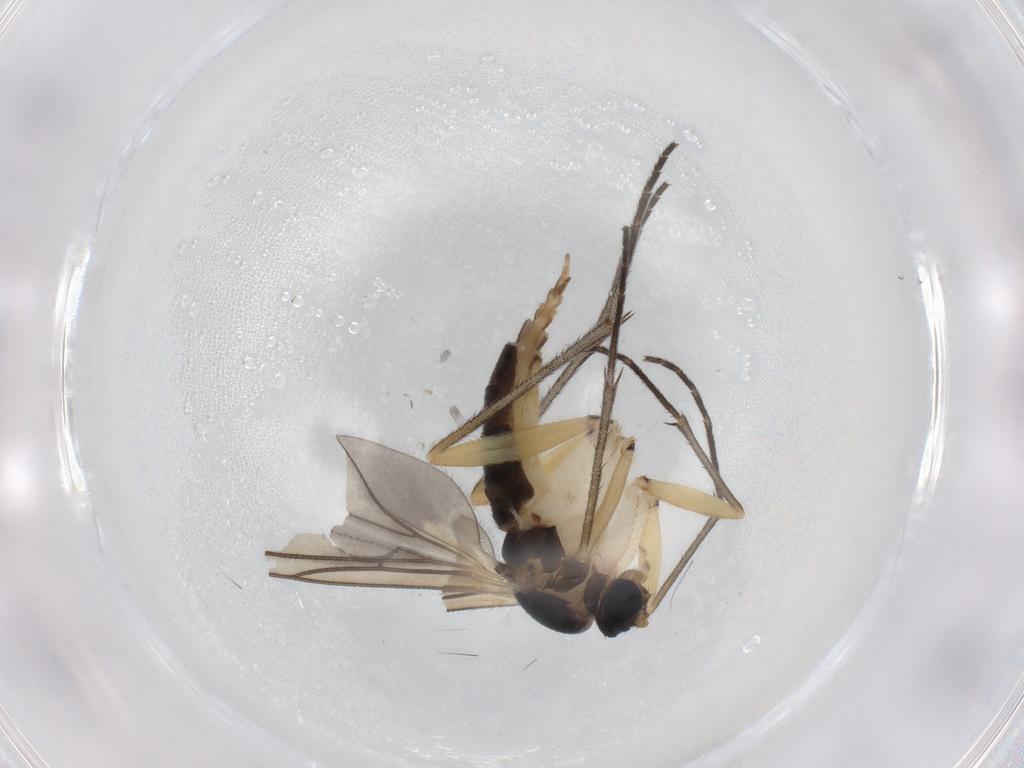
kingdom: Animalia
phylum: Arthropoda
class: Insecta
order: Diptera
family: Sciaridae
